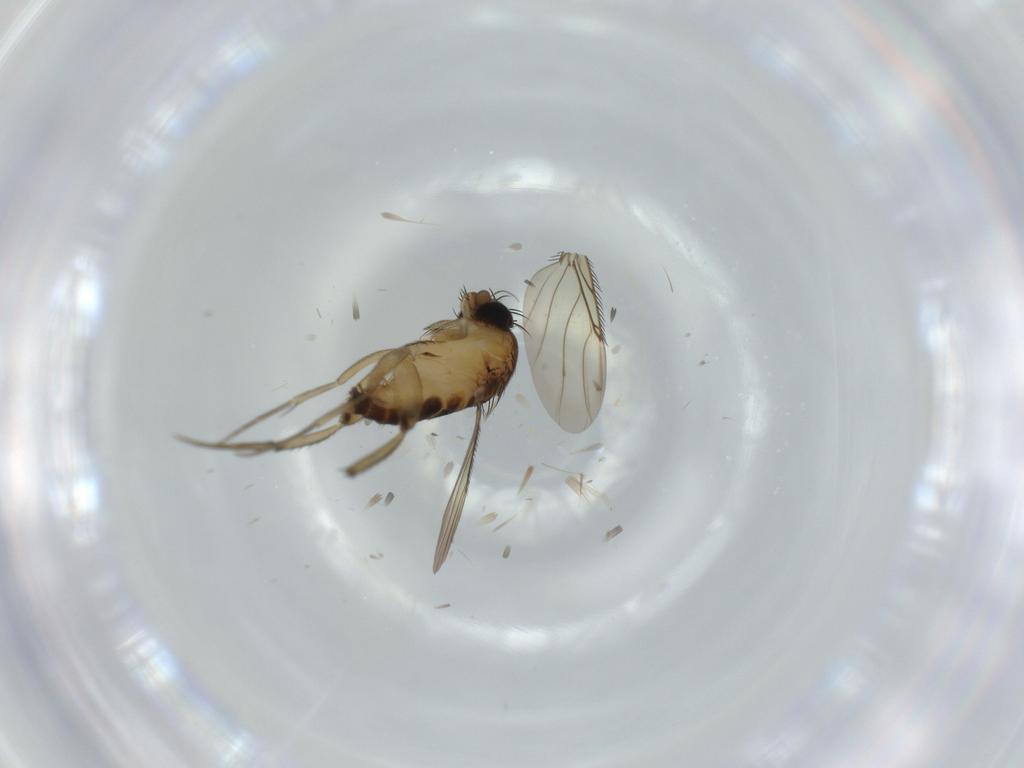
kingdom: Animalia
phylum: Arthropoda
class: Insecta
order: Diptera
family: Phoridae
